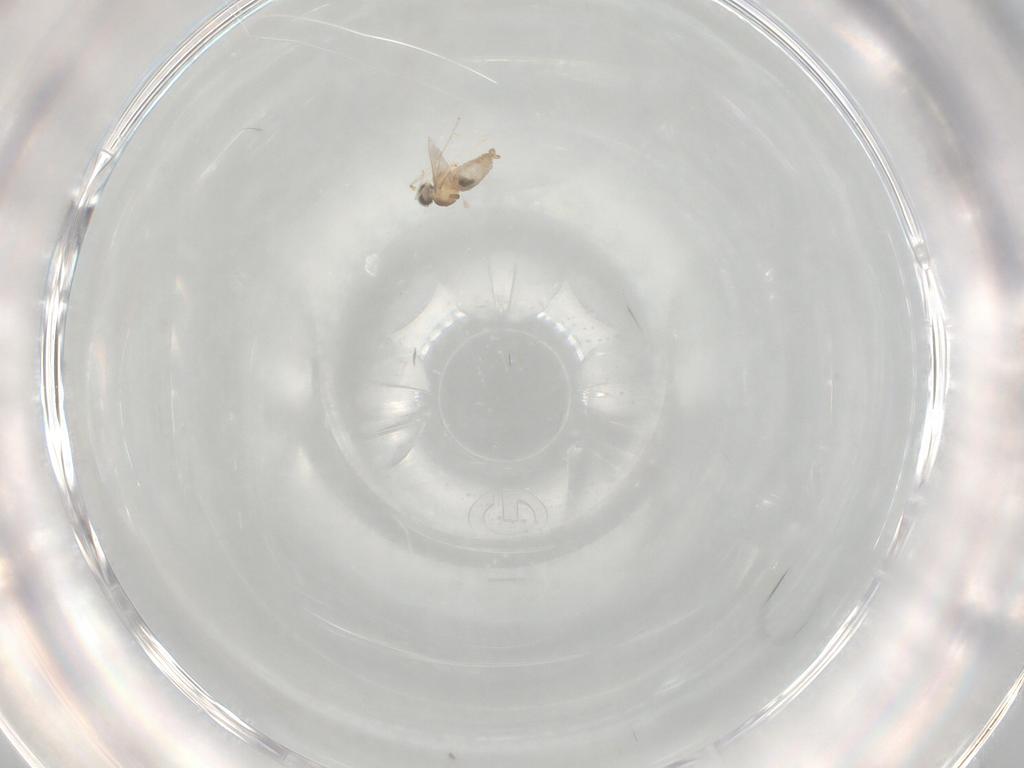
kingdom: Animalia
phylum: Arthropoda
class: Insecta
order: Diptera
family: Cecidomyiidae
